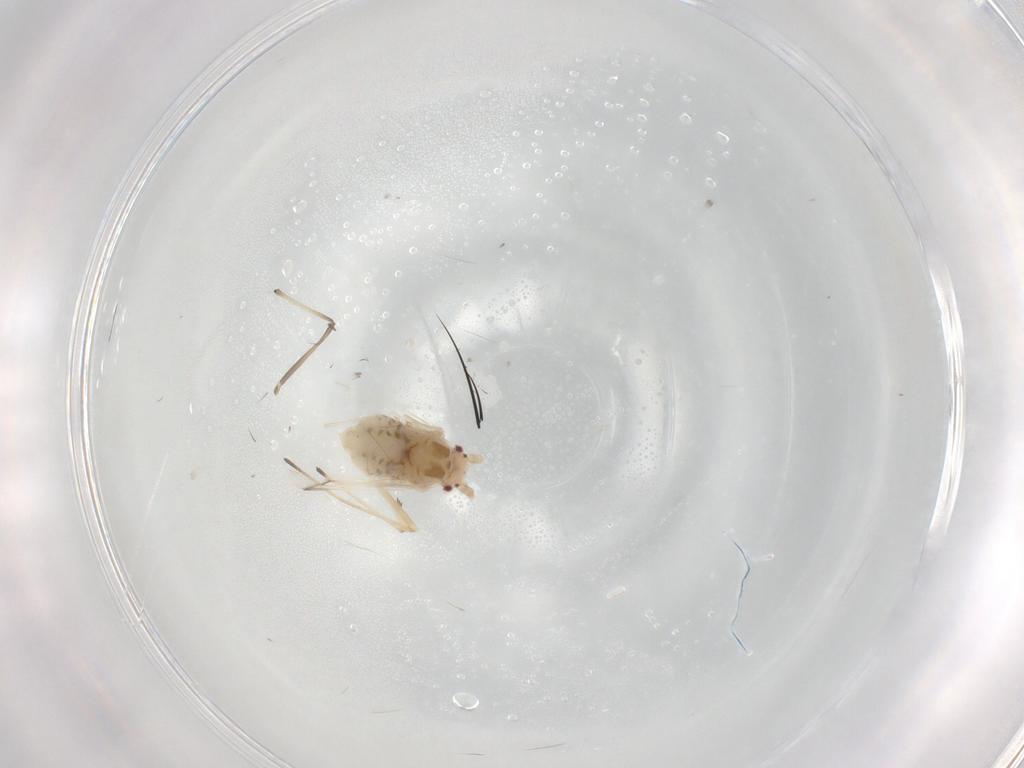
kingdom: Animalia
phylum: Arthropoda
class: Insecta
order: Hemiptera
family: Aphididae
